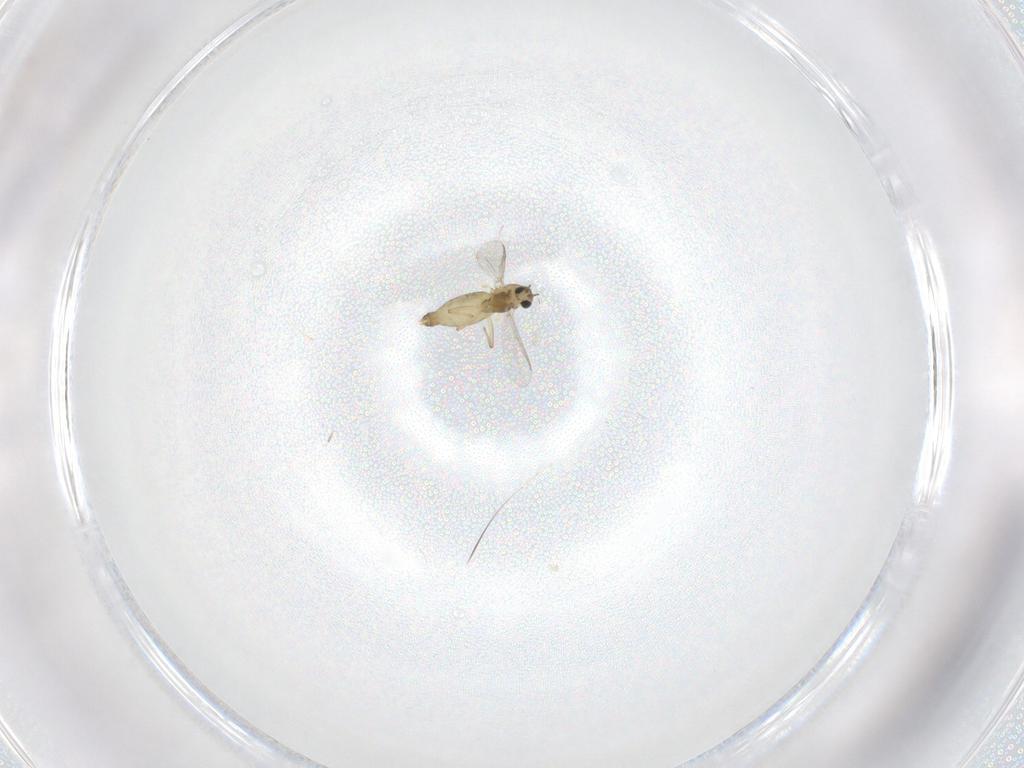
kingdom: Animalia
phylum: Arthropoda
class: Insecta
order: Diptera
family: Chironomidae
